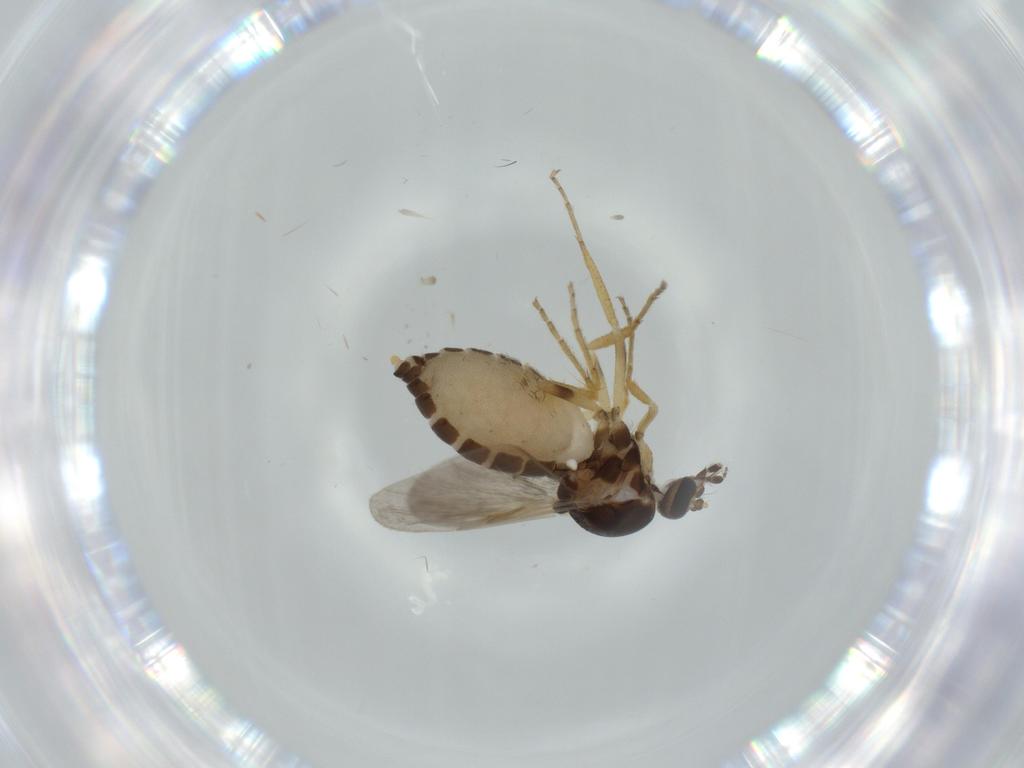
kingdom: Animalia
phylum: Arthropoda
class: Insecta
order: Diptera
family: Ceratopogonidae
